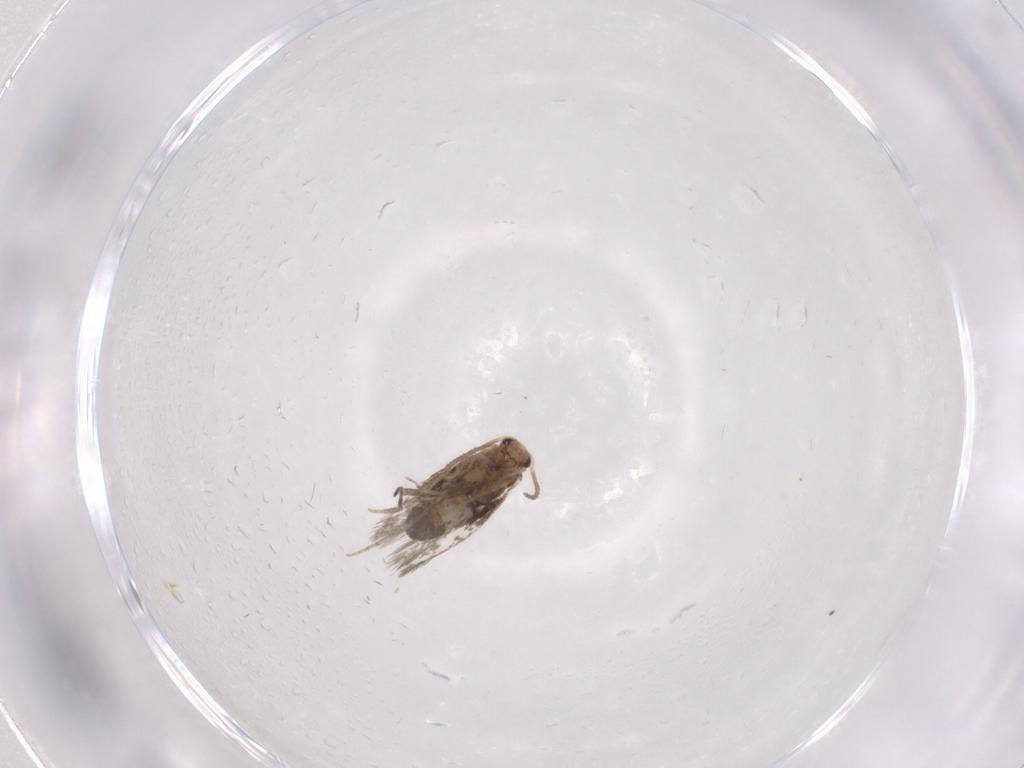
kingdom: Animalia
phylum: Arthropoda
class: Insecta
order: Lepidoptera
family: Nepticulidae
